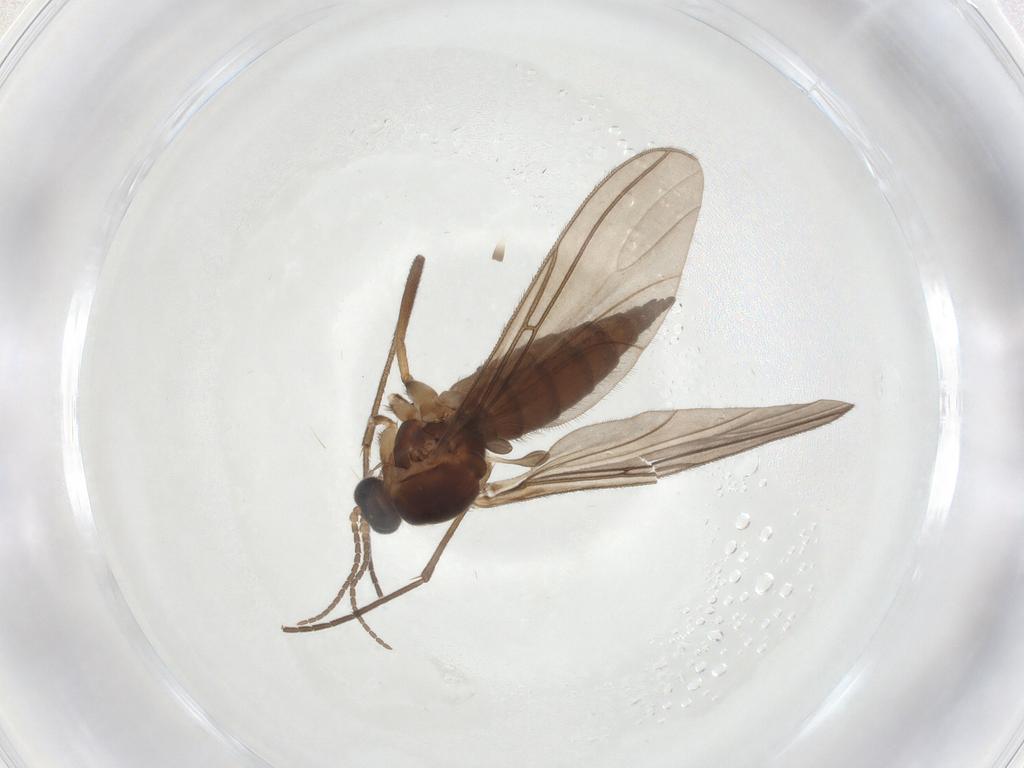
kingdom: Animalia
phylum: Arthropoda
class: Insecta
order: Diptera
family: Sciaridae
